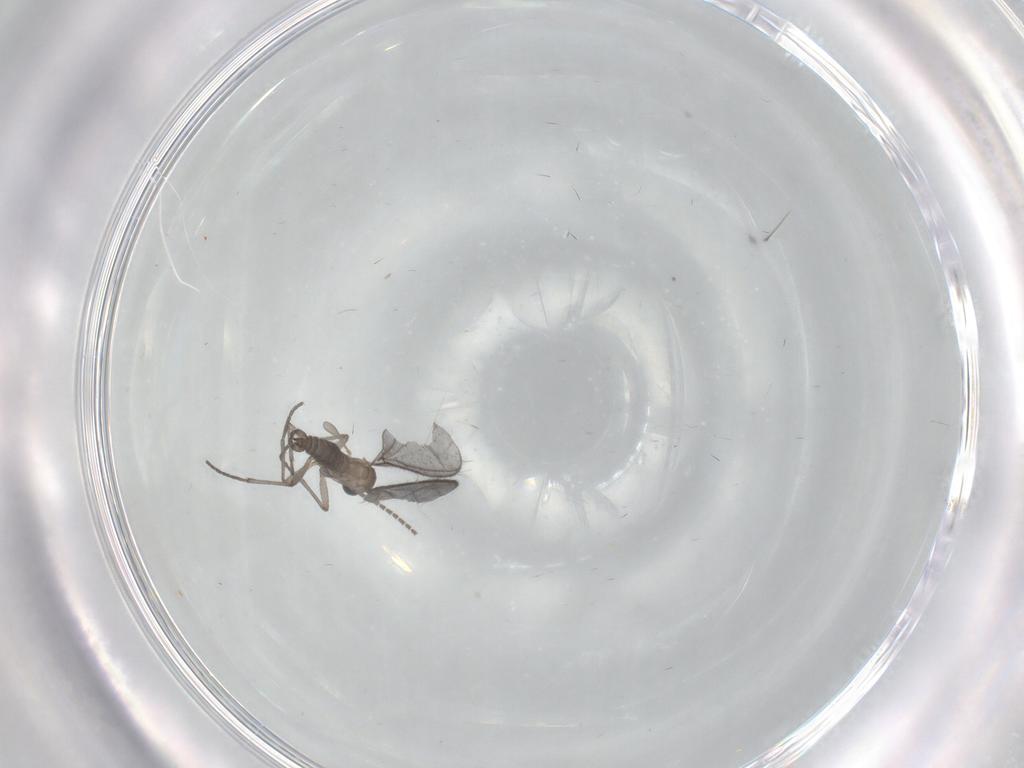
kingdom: Animalia
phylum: Arthropoda
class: Insecta
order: Diptera
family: Sciaridae
